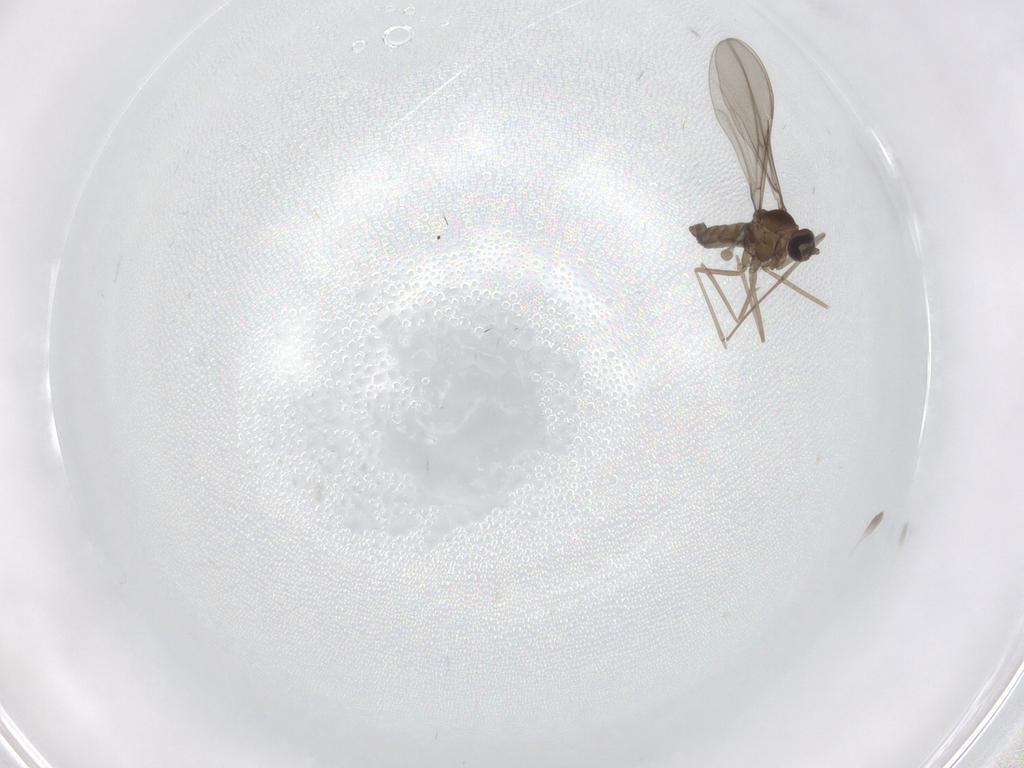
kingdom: Animalia
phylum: Arthropoda
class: Insecta
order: Diptera
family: Cecidomyiidae
